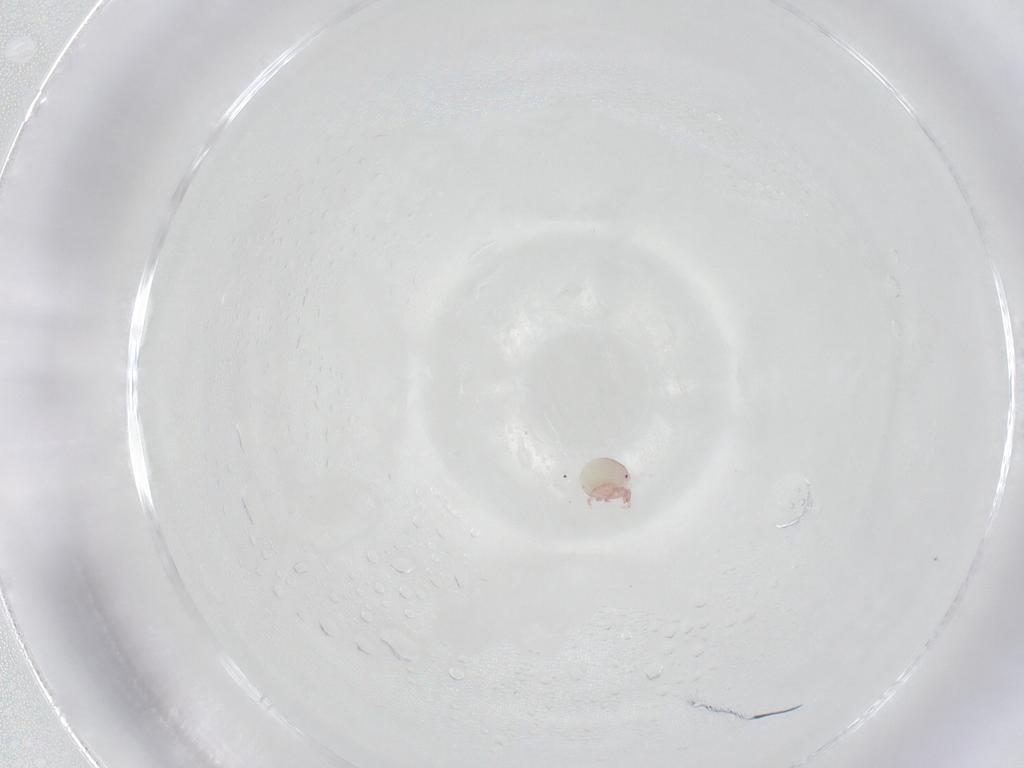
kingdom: Animalia
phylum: Arthropoda
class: Arachnida
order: Trombidiformes
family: Pionidae
